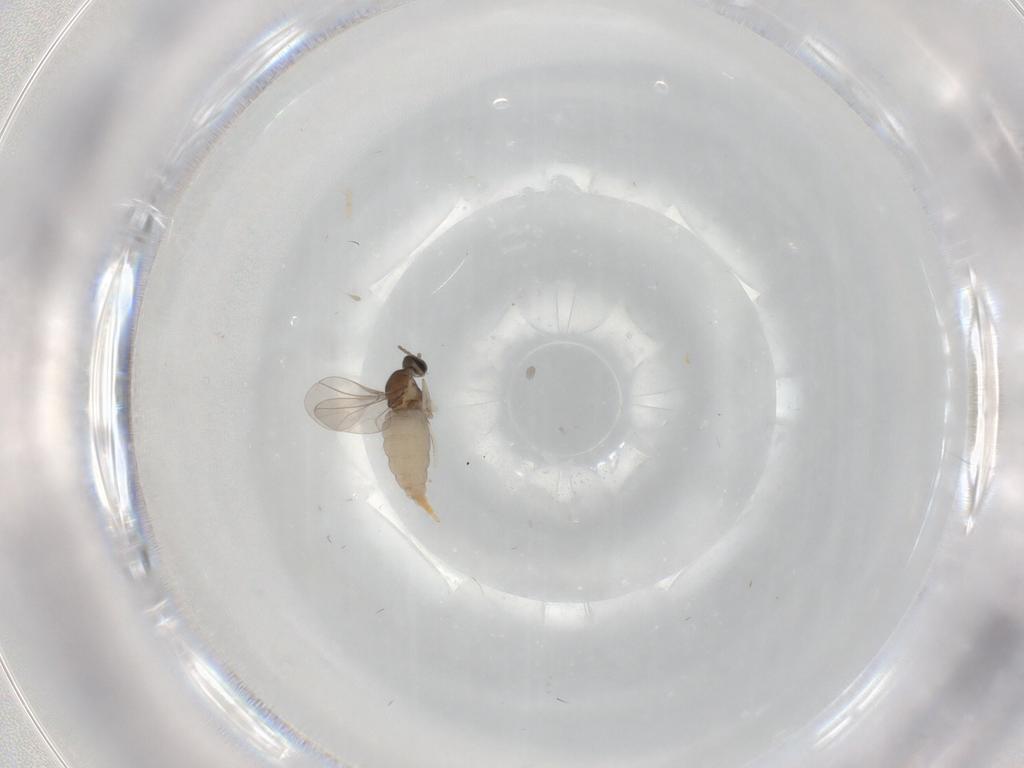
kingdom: Animalia
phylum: Arthropoda
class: Insecta
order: Diptera
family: Cecidomyiidae
